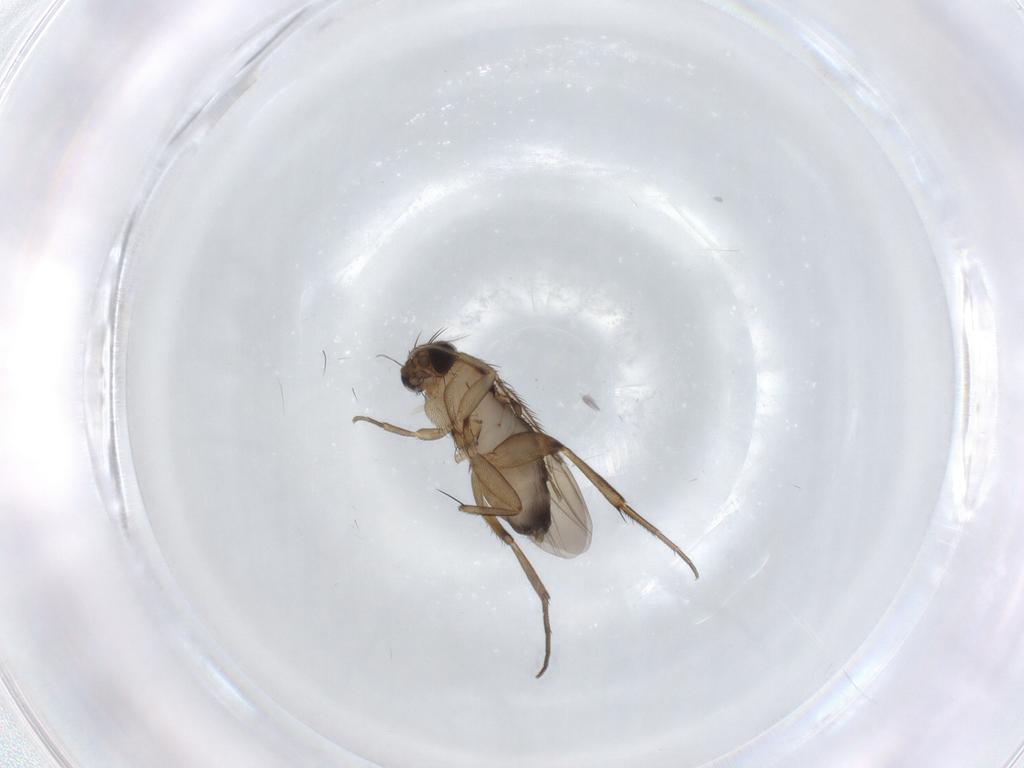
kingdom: Animalia
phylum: Arthropoda
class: Insecta
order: Diptera
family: Phoridae
